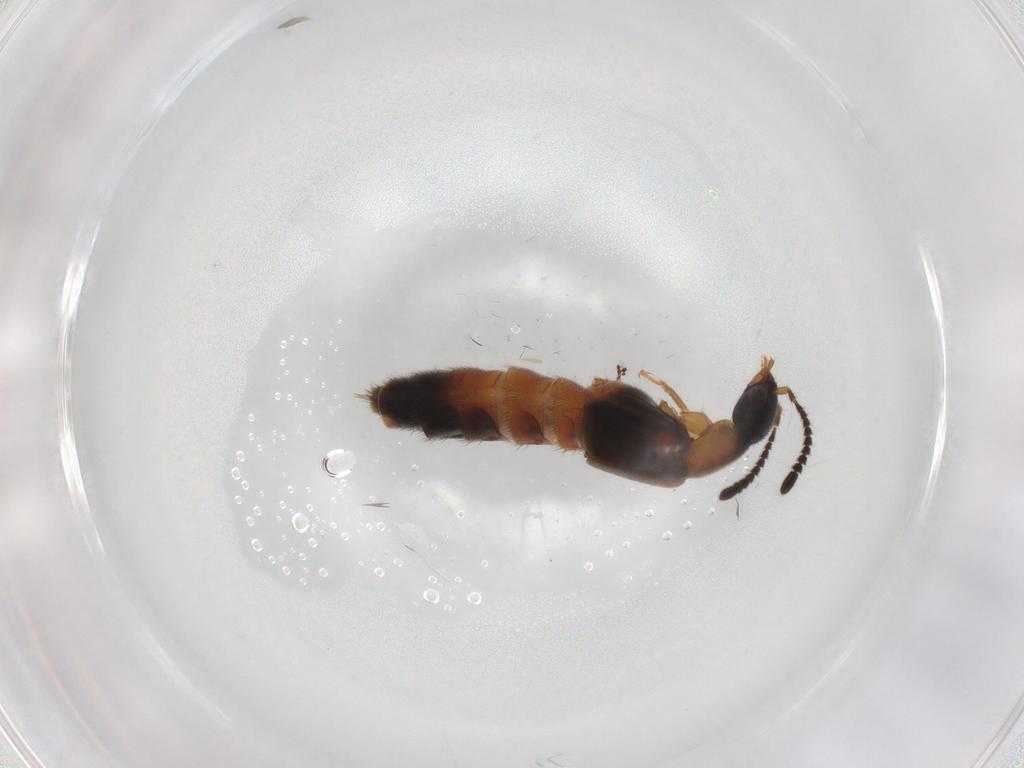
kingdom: Animalia
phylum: Arthropoda
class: Insecta
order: Coleoptera
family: Staphylinidae
